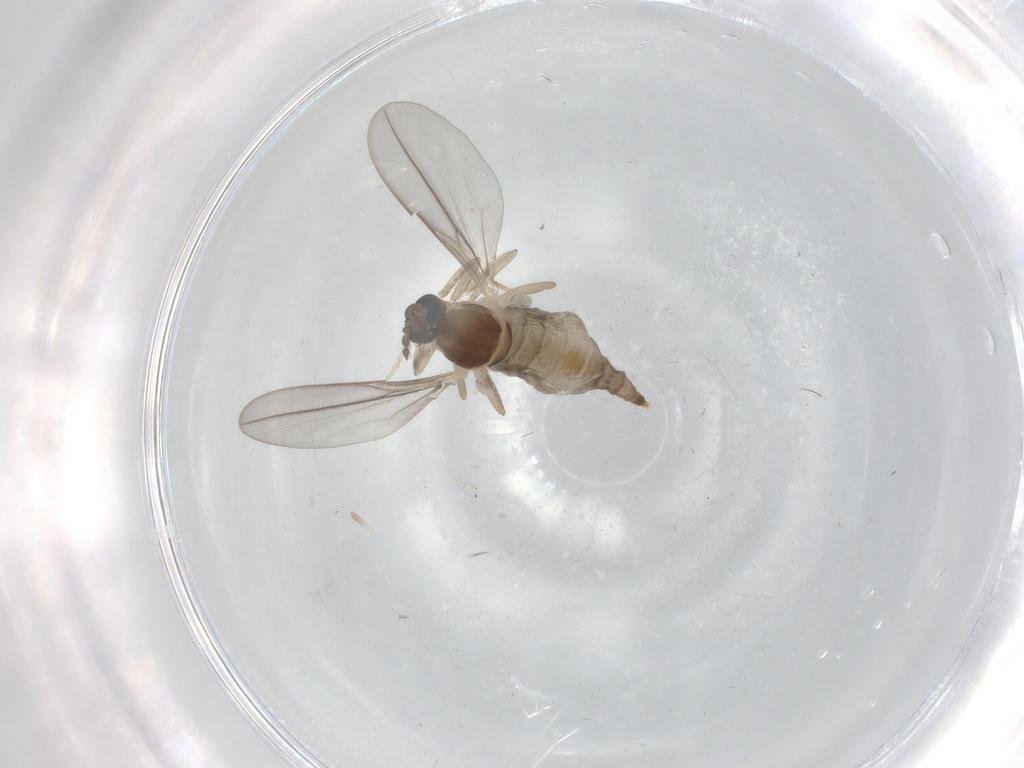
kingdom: Animalia
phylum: Arthropoda
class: Insecta
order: Diptera
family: Cecidomyiidae
